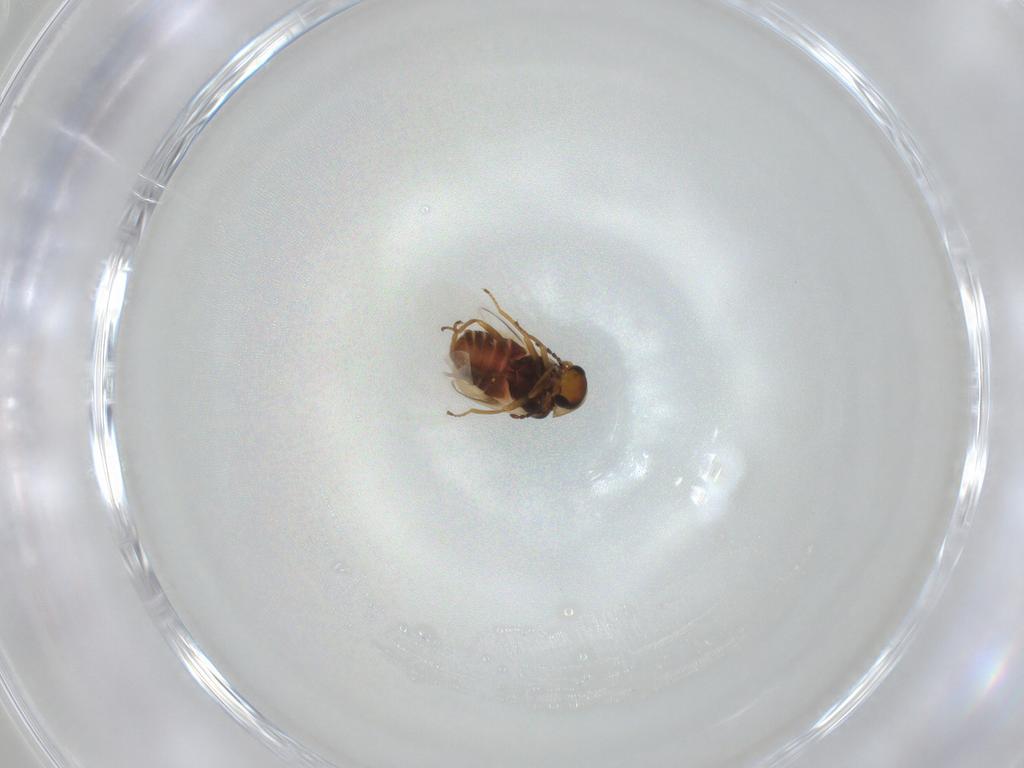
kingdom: Animalia
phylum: Arthropoda
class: Insecta
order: Coleoptera
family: Melyridae
